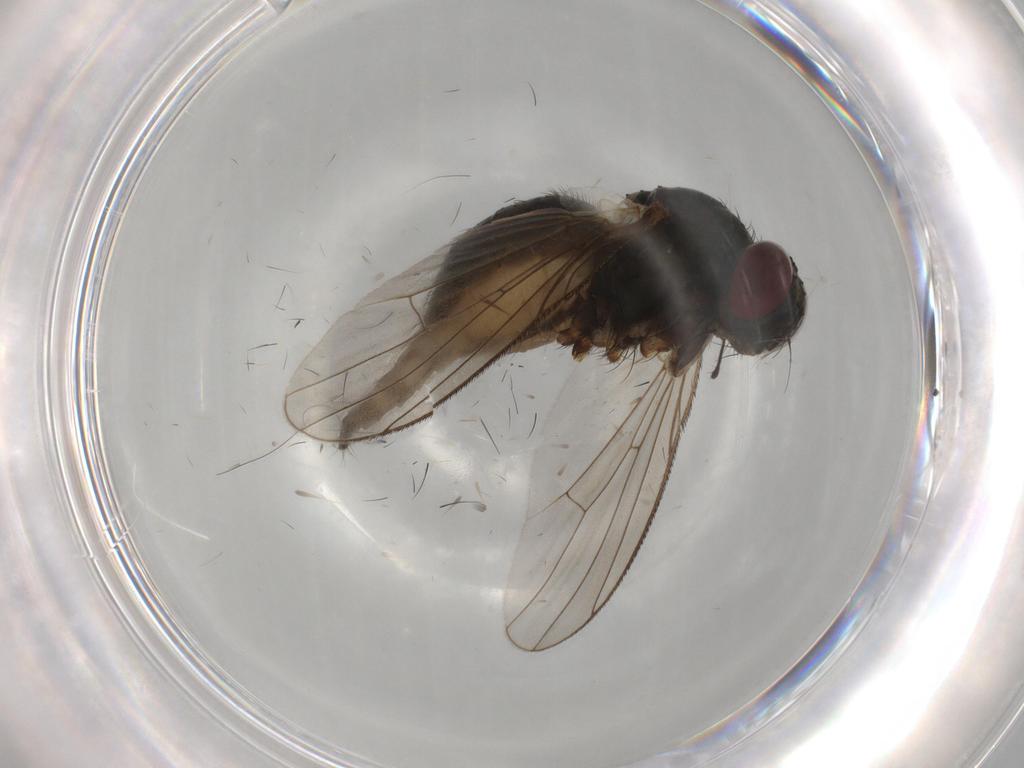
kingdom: Animalia
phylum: Arthropoda
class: Insecta
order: Diptera
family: Muscidae
